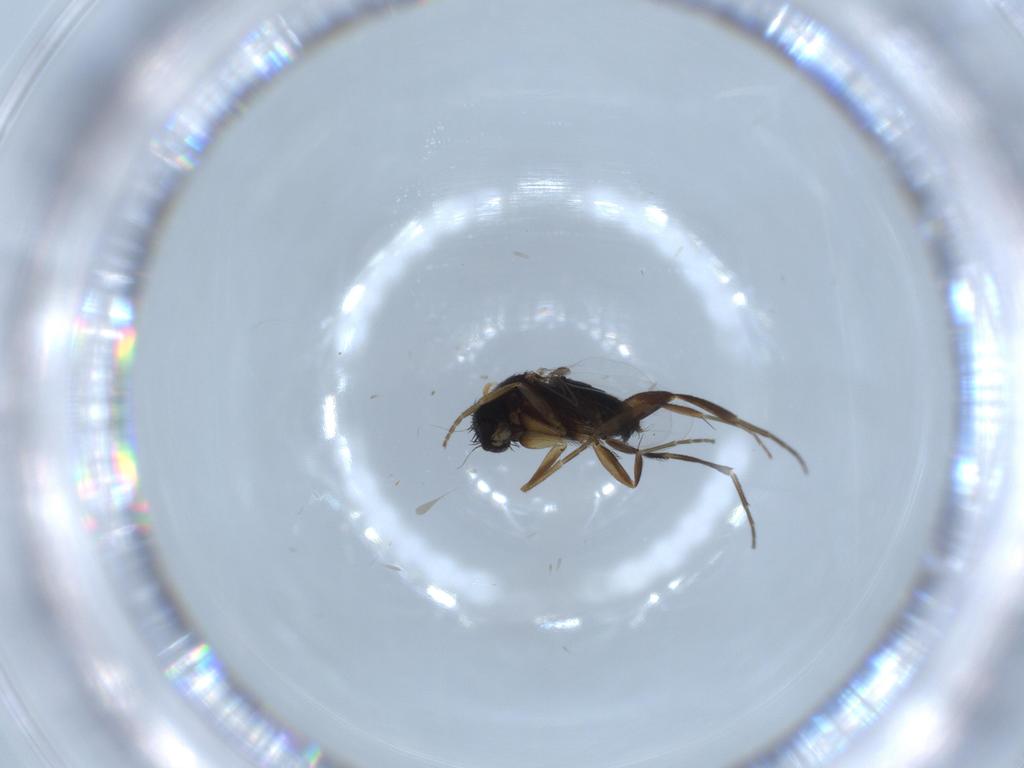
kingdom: Animalia
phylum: Arthropoda
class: Insecta
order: Diptera
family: Phoridae
